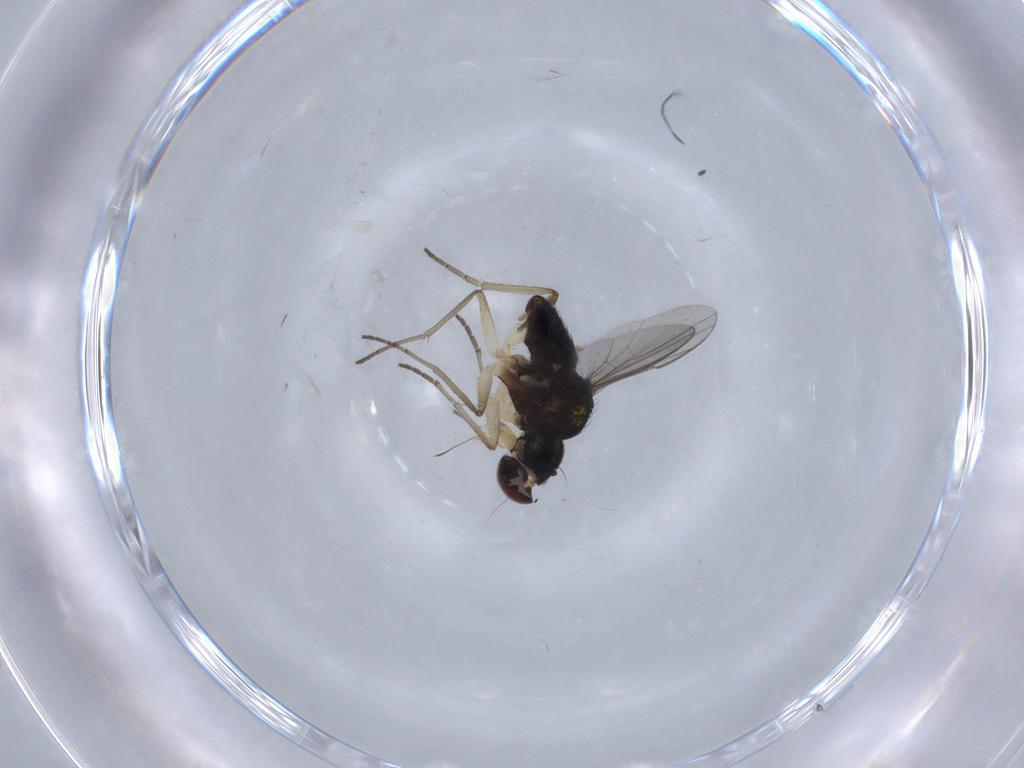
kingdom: Animalia
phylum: Arthropoda
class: Insecta
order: Diptera
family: Dolichopodidae
